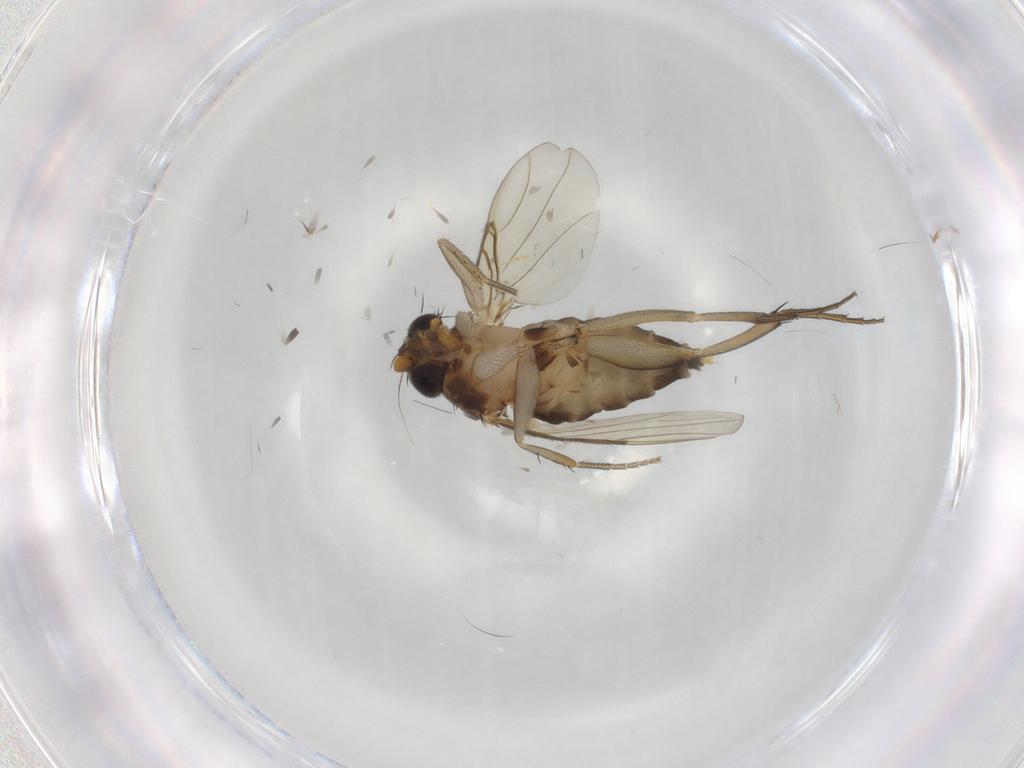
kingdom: Animalia
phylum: Arthropoda
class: Insecta
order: Diptera
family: Phoridae
